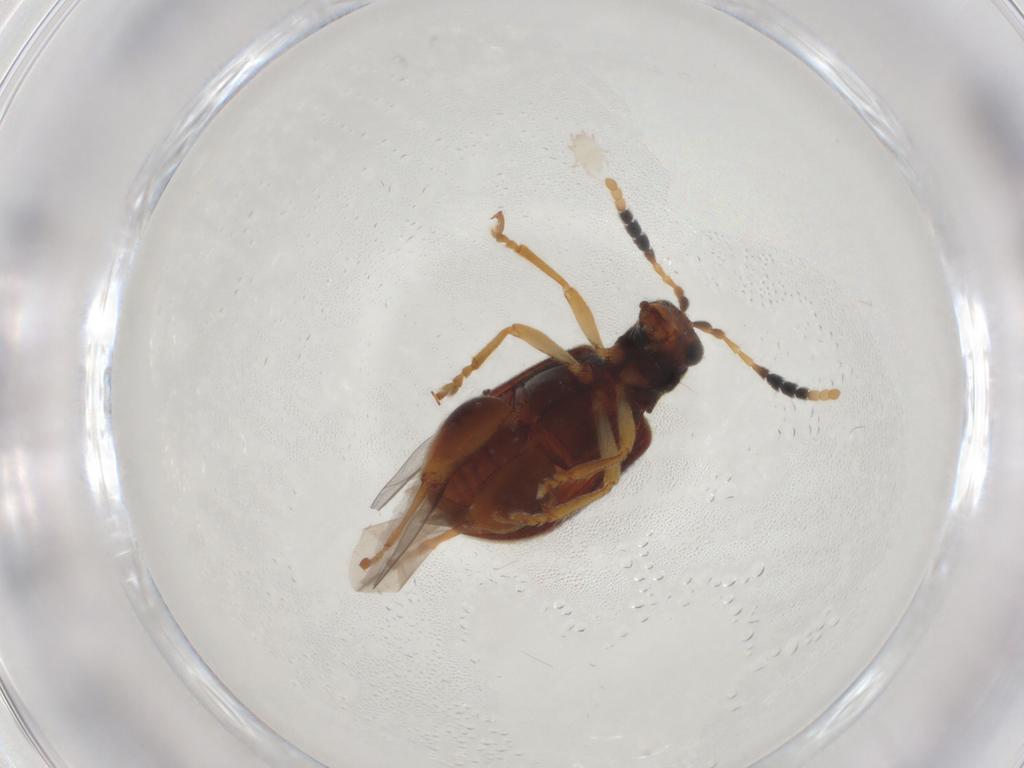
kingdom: Animalia
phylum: Arthropoda
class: Insecta
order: Coleoptera
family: Chrysomelidae
